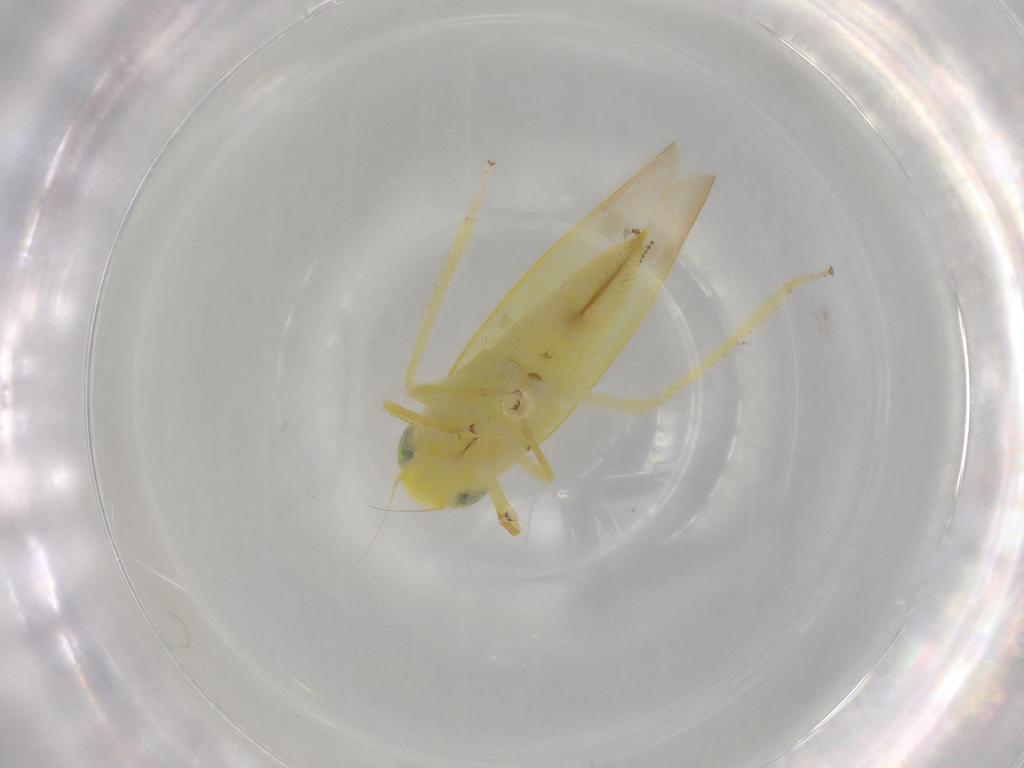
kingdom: Animalia
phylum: Arthropoda
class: Insecta
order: Hemiptera
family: Cicadellidae
